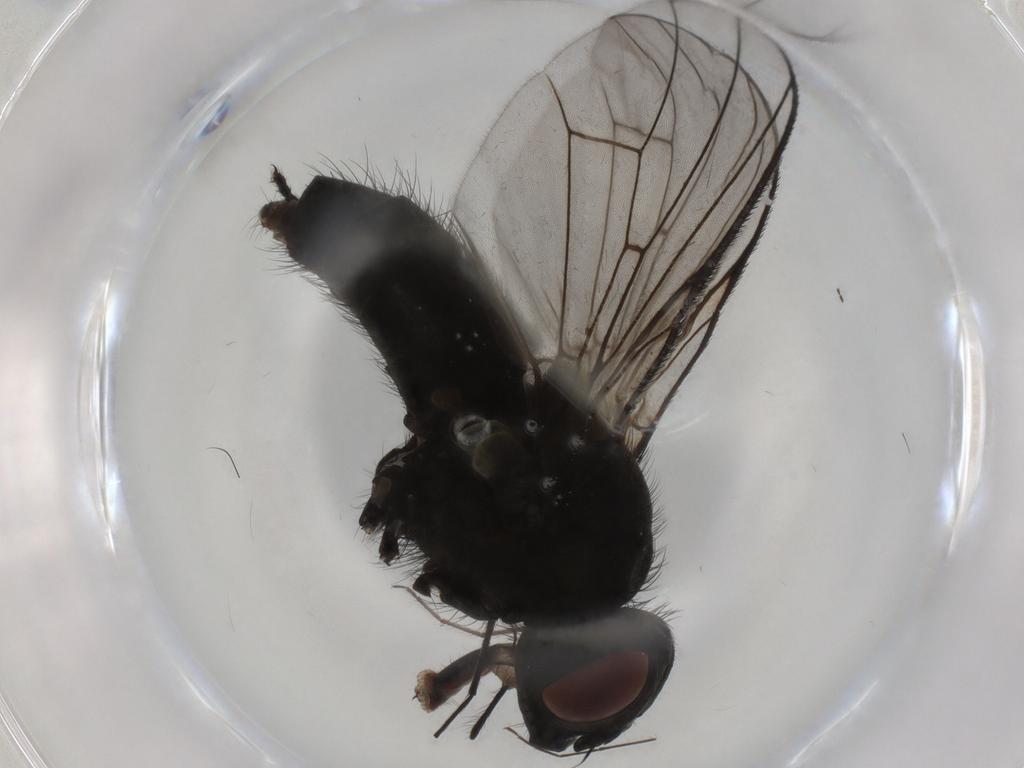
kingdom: Animalia
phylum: Arthropoda
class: Insecta
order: Diptera
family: Muscidae
